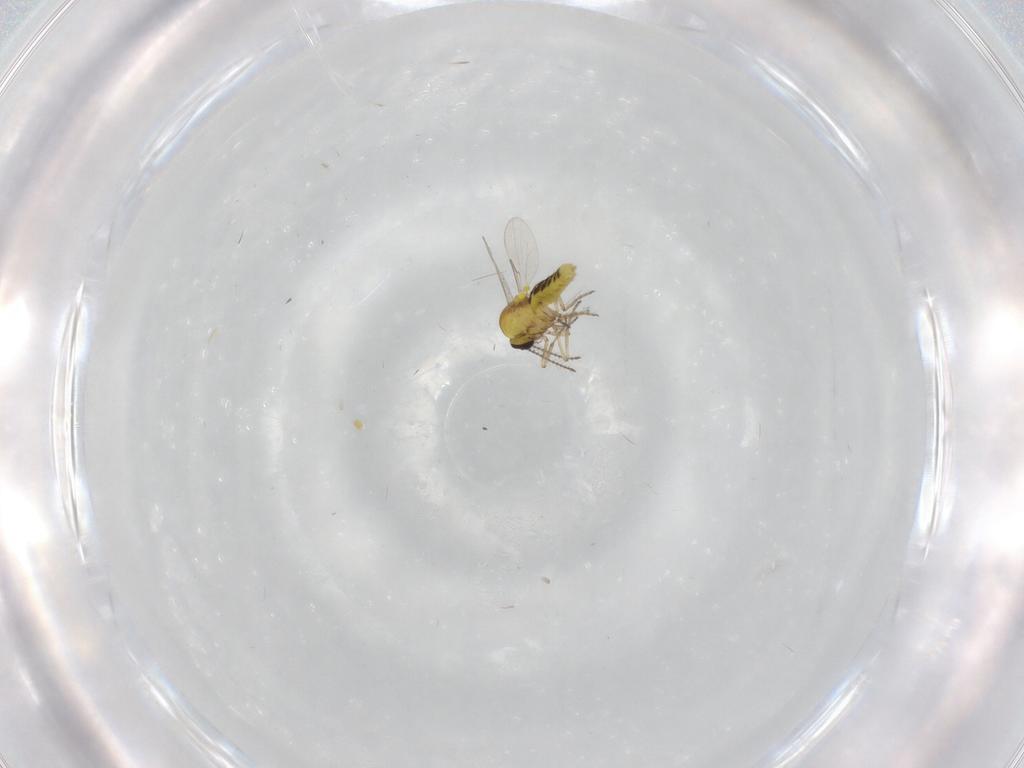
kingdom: Animalia
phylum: Arthropoda
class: Insecta
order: Diptera
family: Ceratopogonidae
